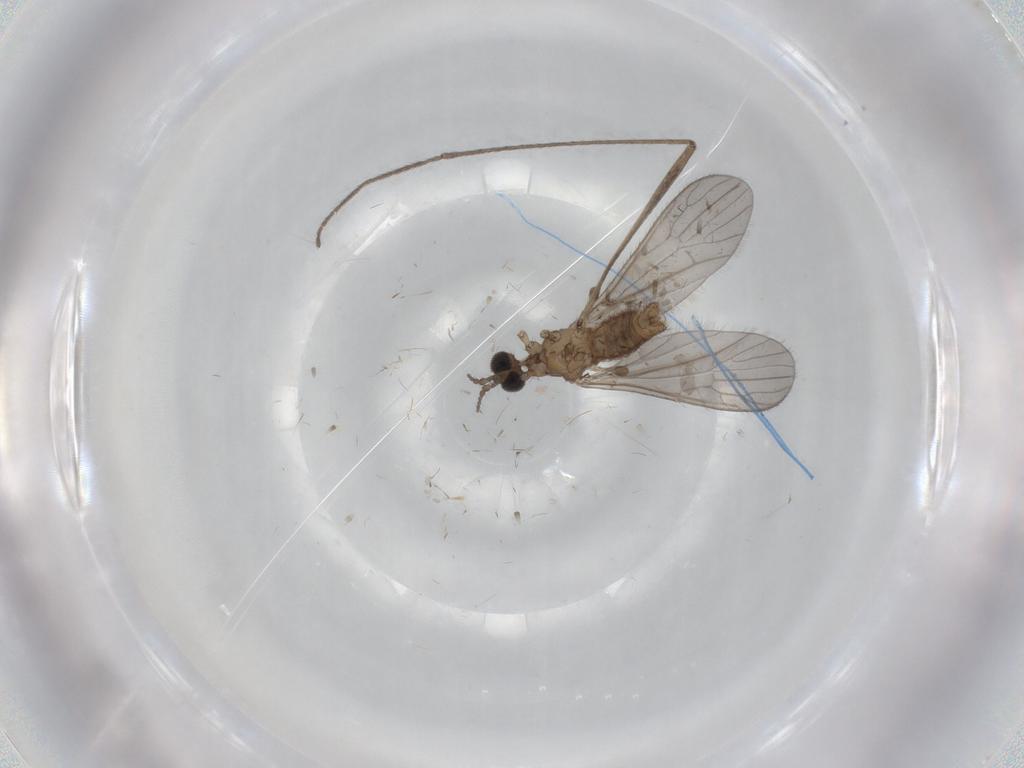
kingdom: Animalia
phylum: Arthropoda
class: Insecta
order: Diptera
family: Limoniidae
